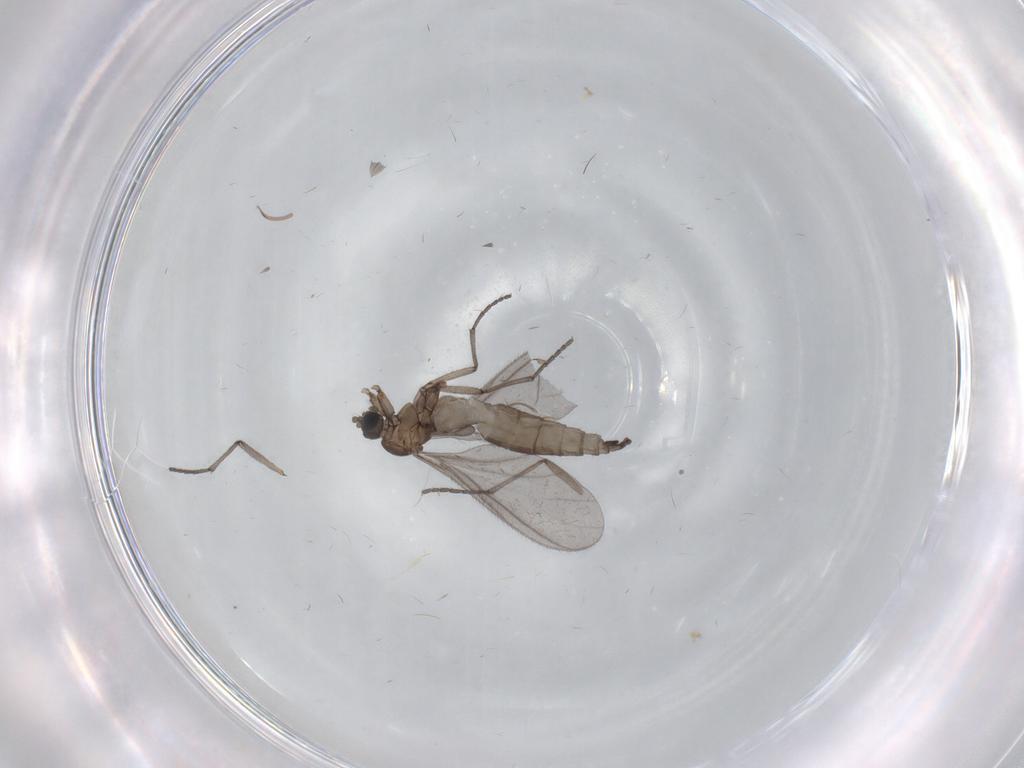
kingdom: Animalia
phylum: Arthropoda
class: Insecta
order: Diptera
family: Sciaridae
